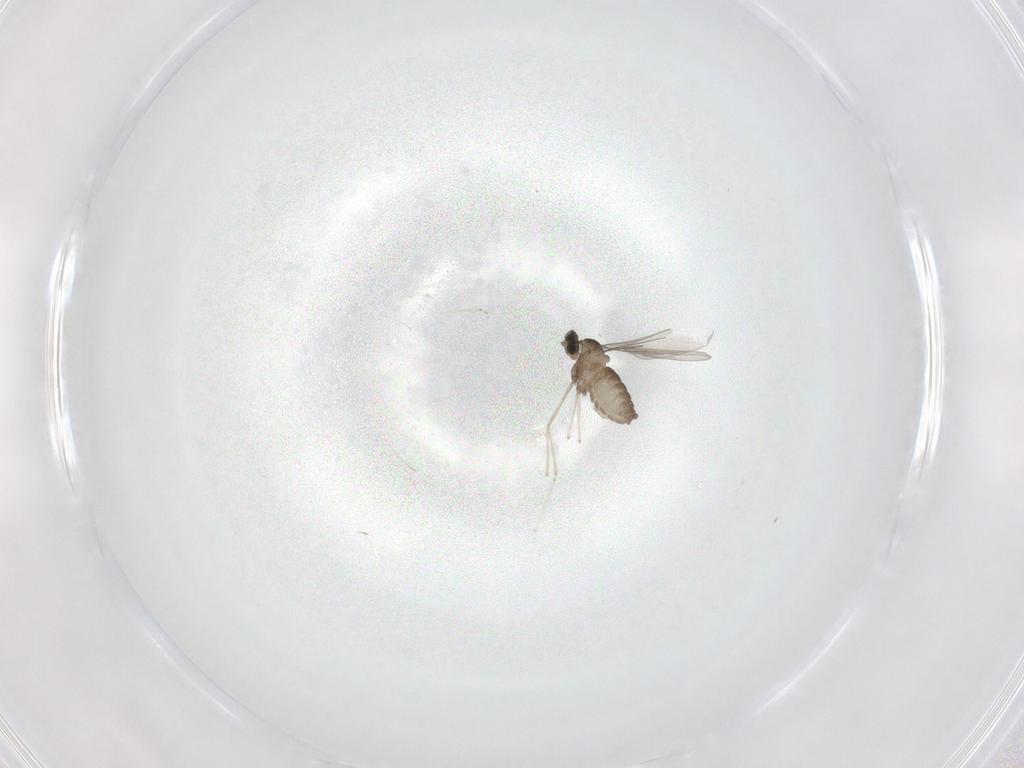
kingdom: Animalia
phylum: Arthropoda
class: Insecta
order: Diptera
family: Cecidomyiidae
